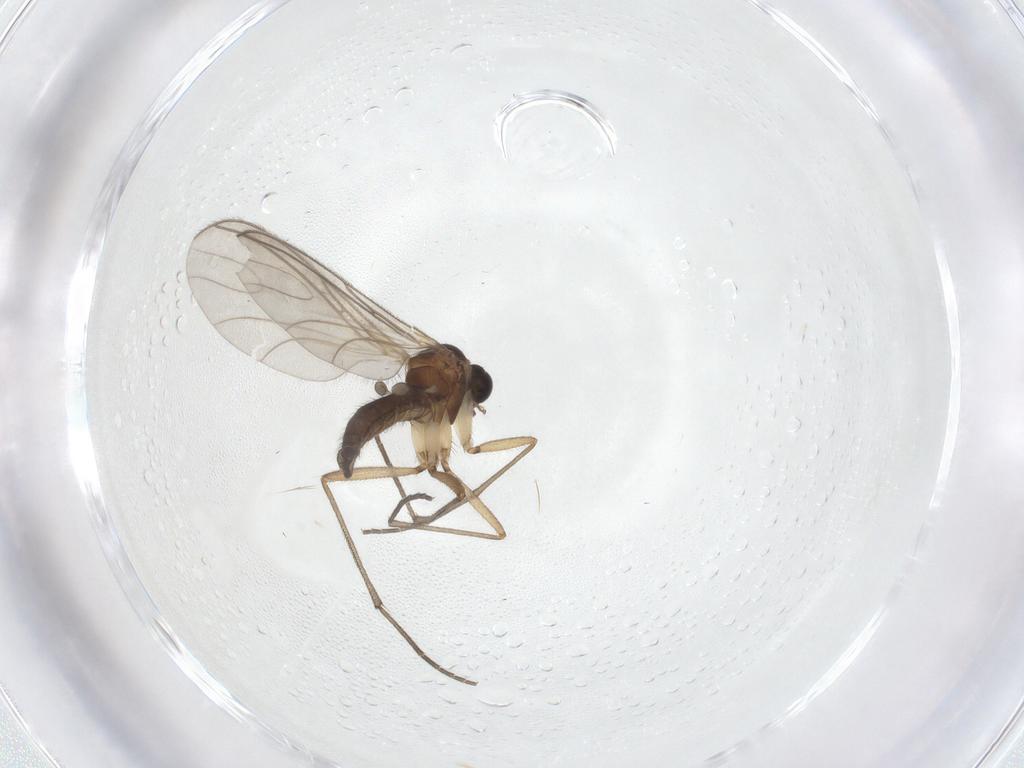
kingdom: Animalia
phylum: Arthropoda
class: Insecta
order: Diptera
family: Sciaridae
